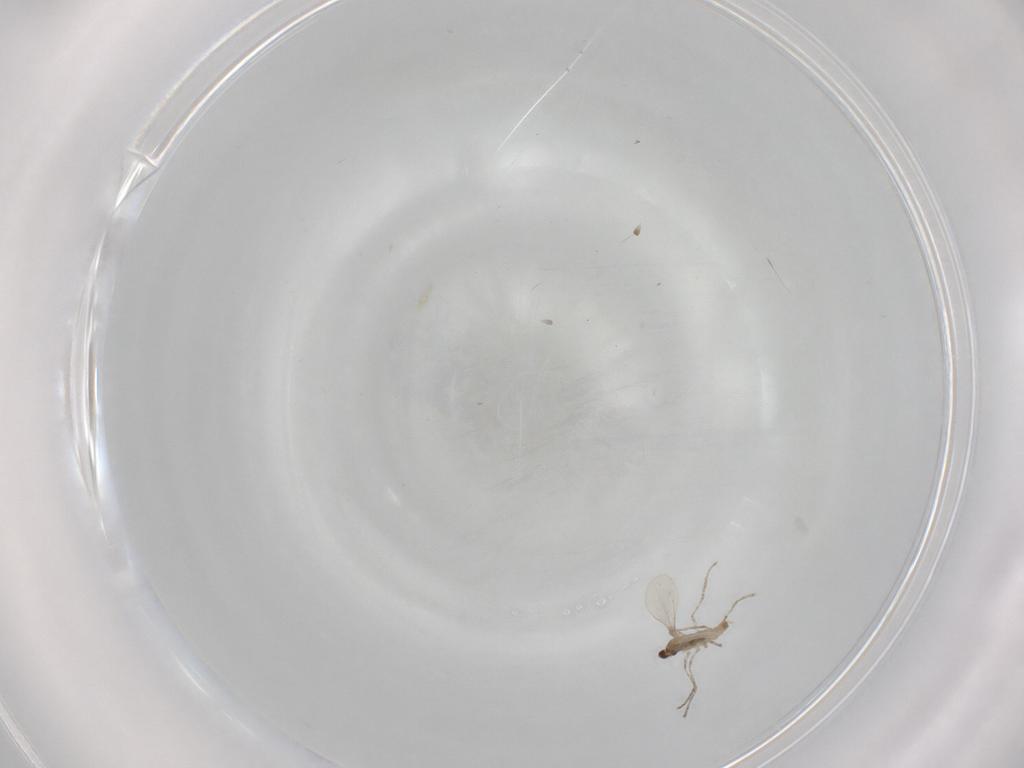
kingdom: Animalia
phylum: Arthropoda
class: Insecta
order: Diptera
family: Cecidomyiidae
